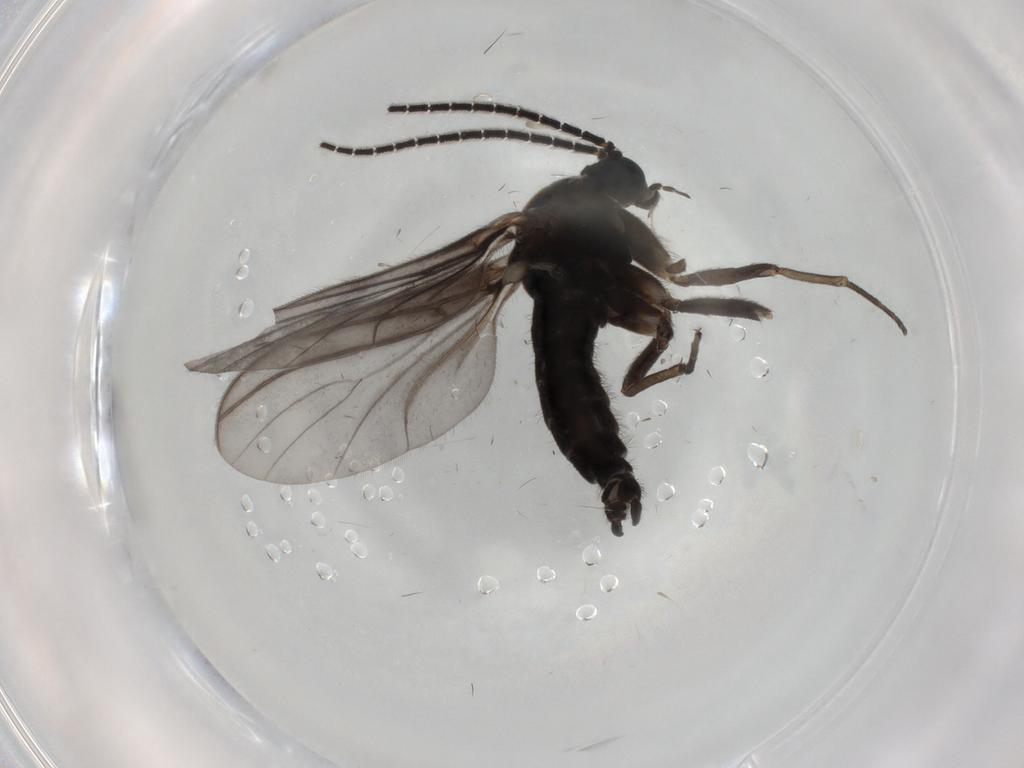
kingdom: Animalia
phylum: Arthropoda
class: Insecta
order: Diptera
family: Sciaridae
